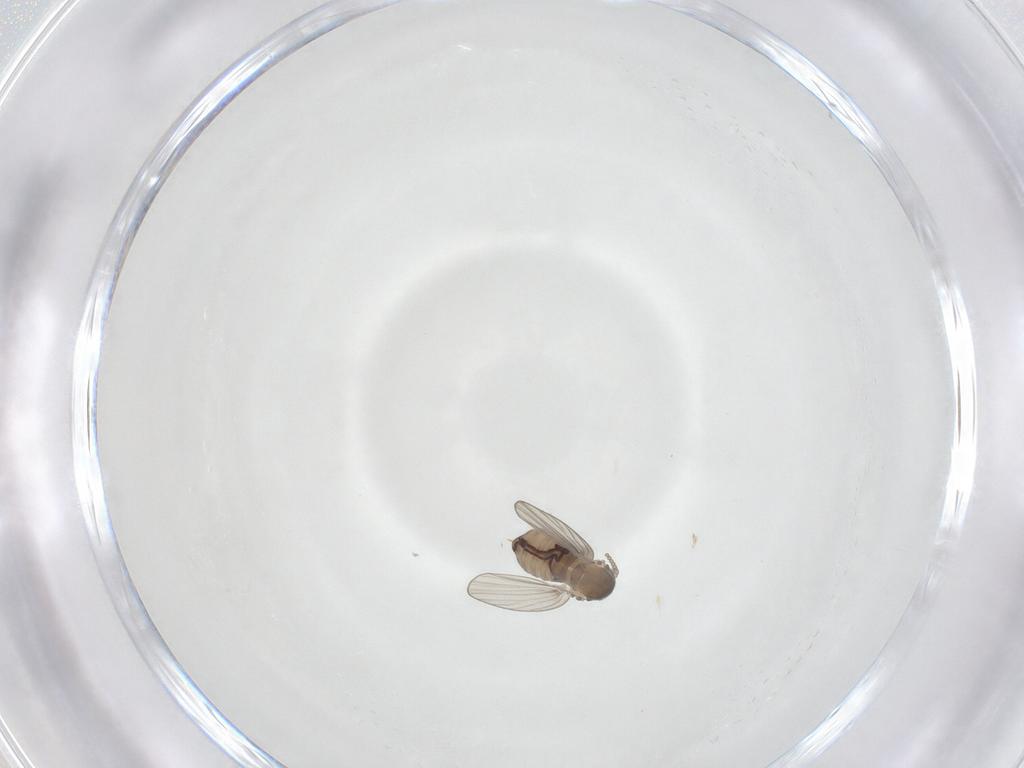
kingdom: Animalia
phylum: Arthropoda
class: Insecta
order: Diptera
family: Psychodidae
